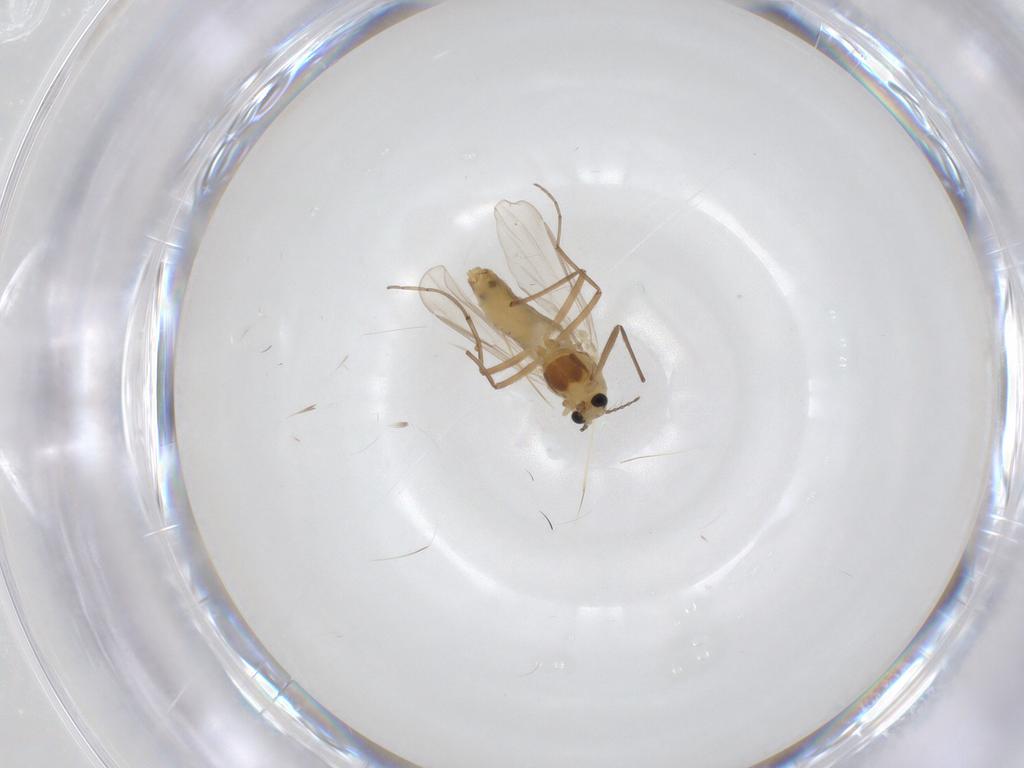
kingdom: Animalia
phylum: Arthropoda
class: Insecta
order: Diptera
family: Chironomidae
